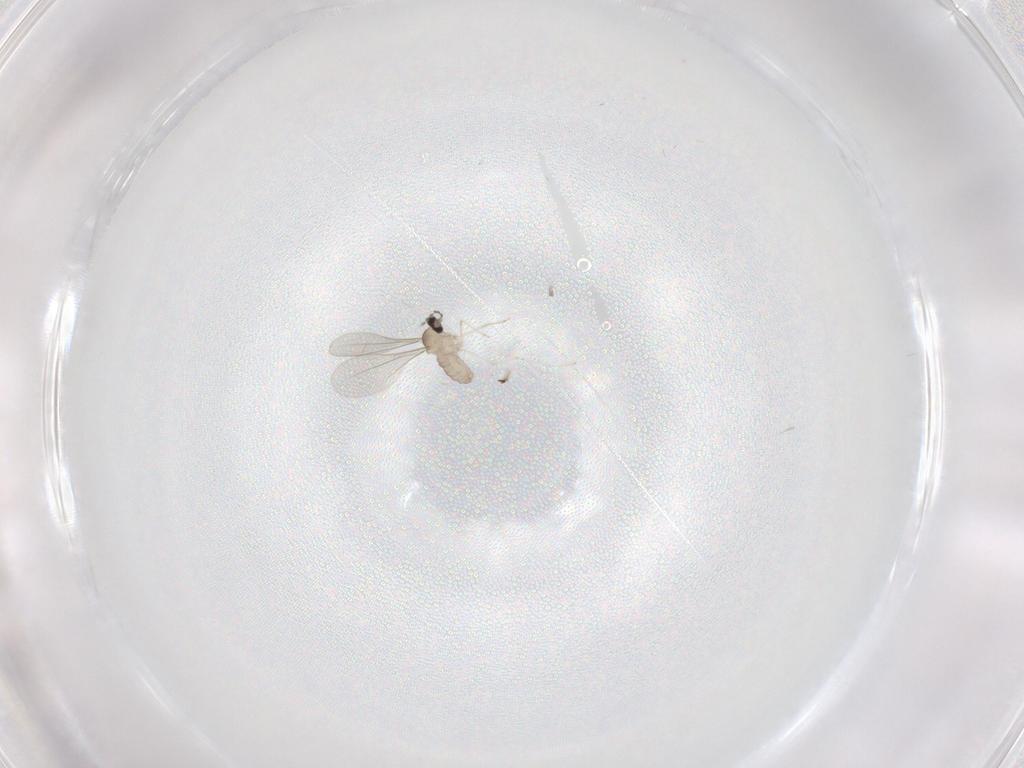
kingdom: Animalia
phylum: Arthropoda
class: Insecta
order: Diptera
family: Cecidomyiidae
